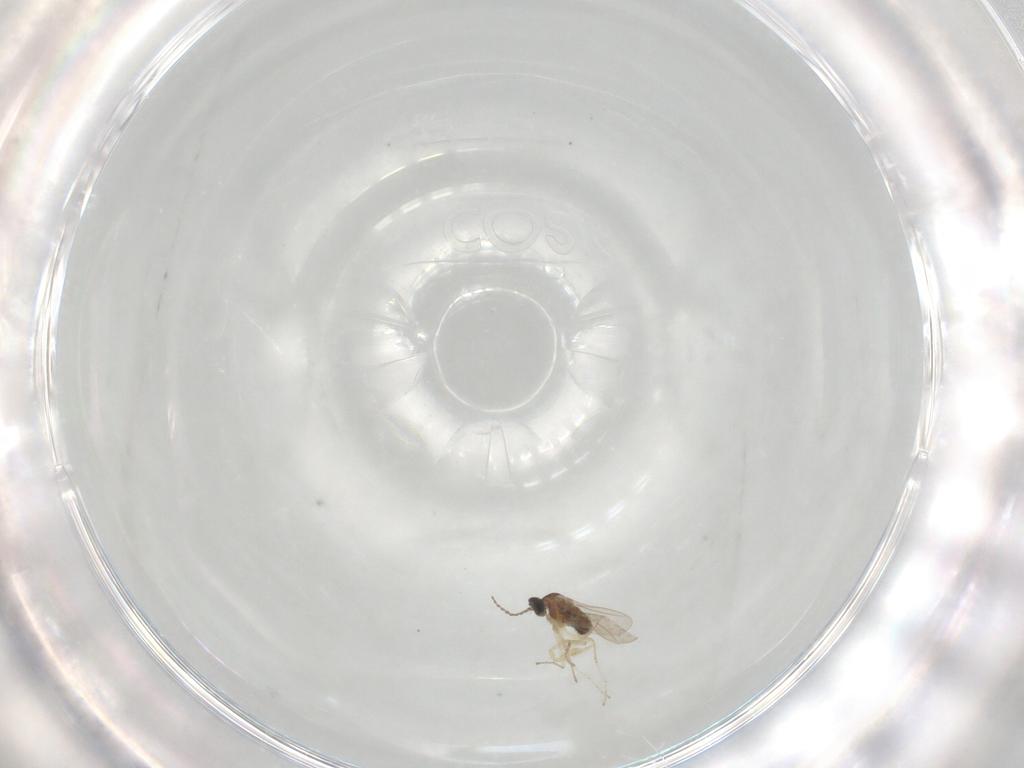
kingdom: Animalia
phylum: Arthropoda
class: Insecta
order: Diptera
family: Cecidomyiidae
